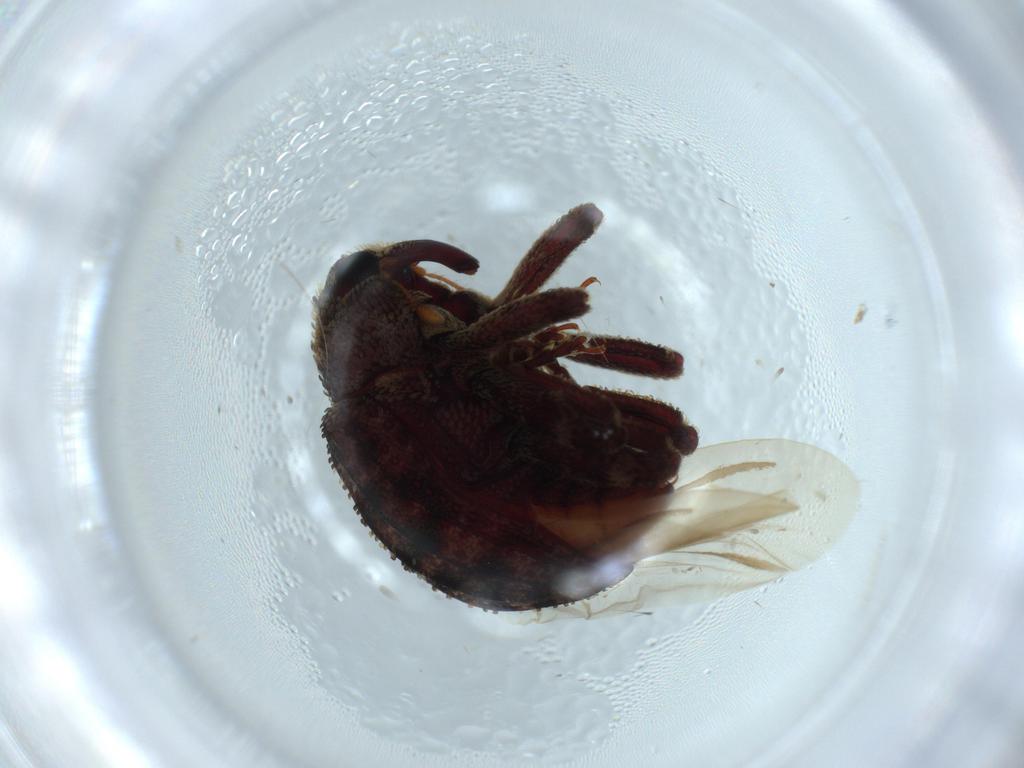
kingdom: Animalia
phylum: Arthropoda
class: Insecta
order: Coleoptera
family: Curculionidae
